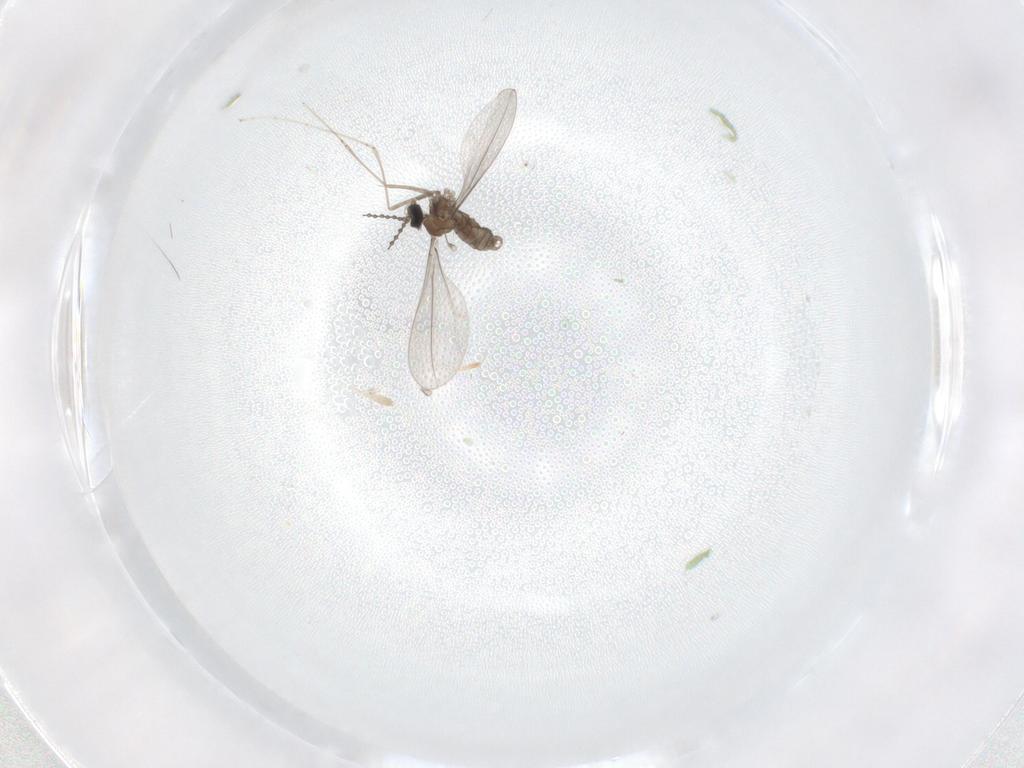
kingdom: Animalia
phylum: Arthropoda
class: Insecta
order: Diptera
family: Cecidomyiidae
